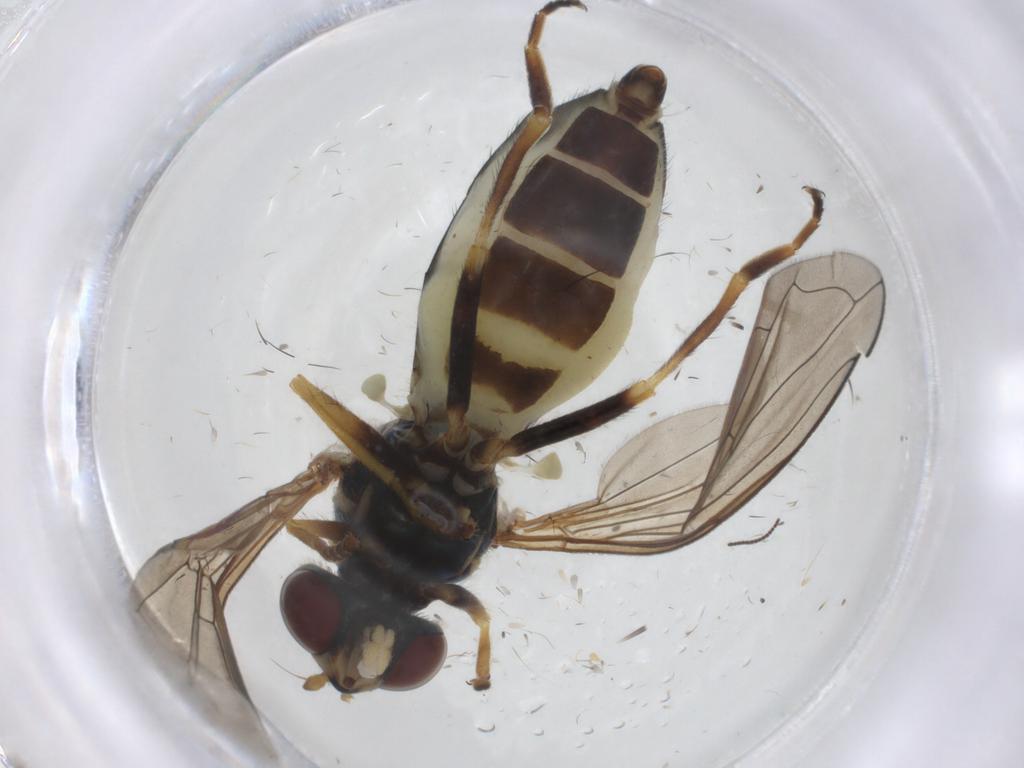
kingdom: Animalia
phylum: Arthropoda
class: Insecta
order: Diptera
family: Syrphidae
